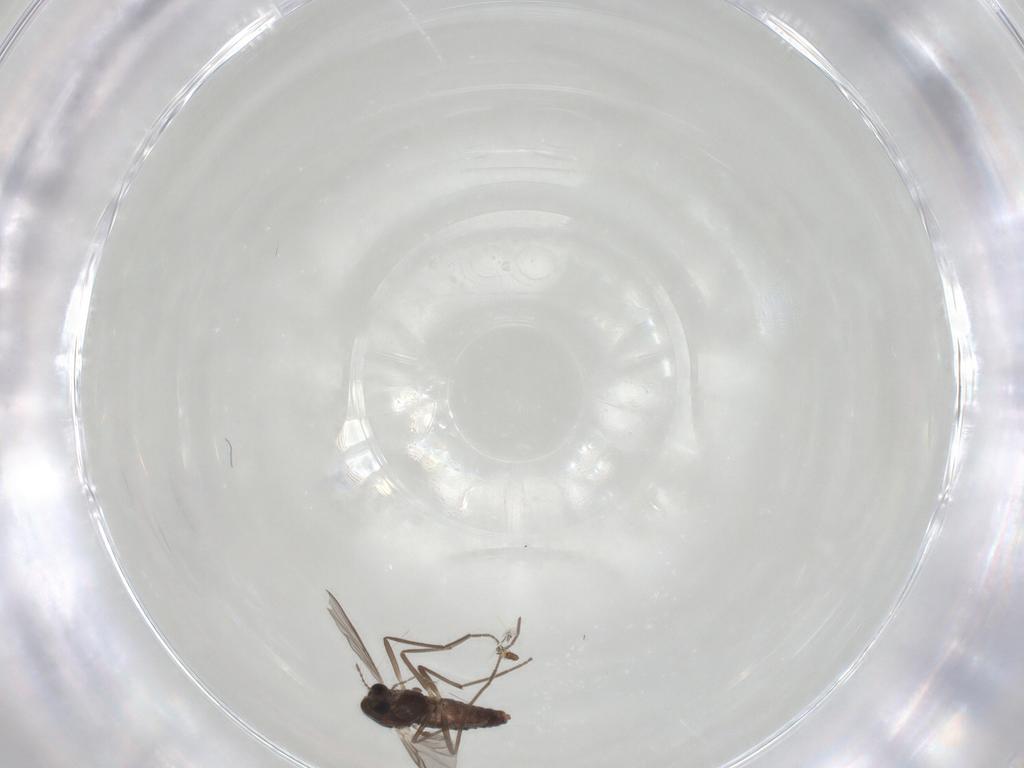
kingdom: Animalia
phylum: Arthropoda
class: Insecta
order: Diptera
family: Chironomidae
